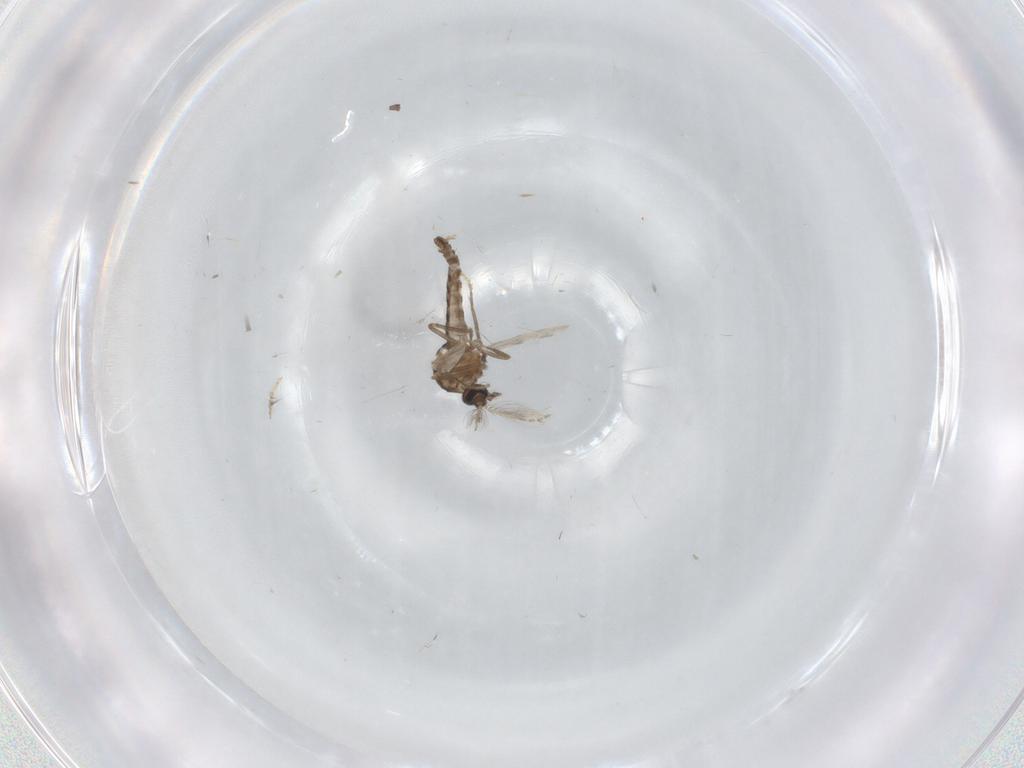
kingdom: Animalia
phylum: Arthropoda
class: Insecta
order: Diptera
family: Ceratopogonidae
